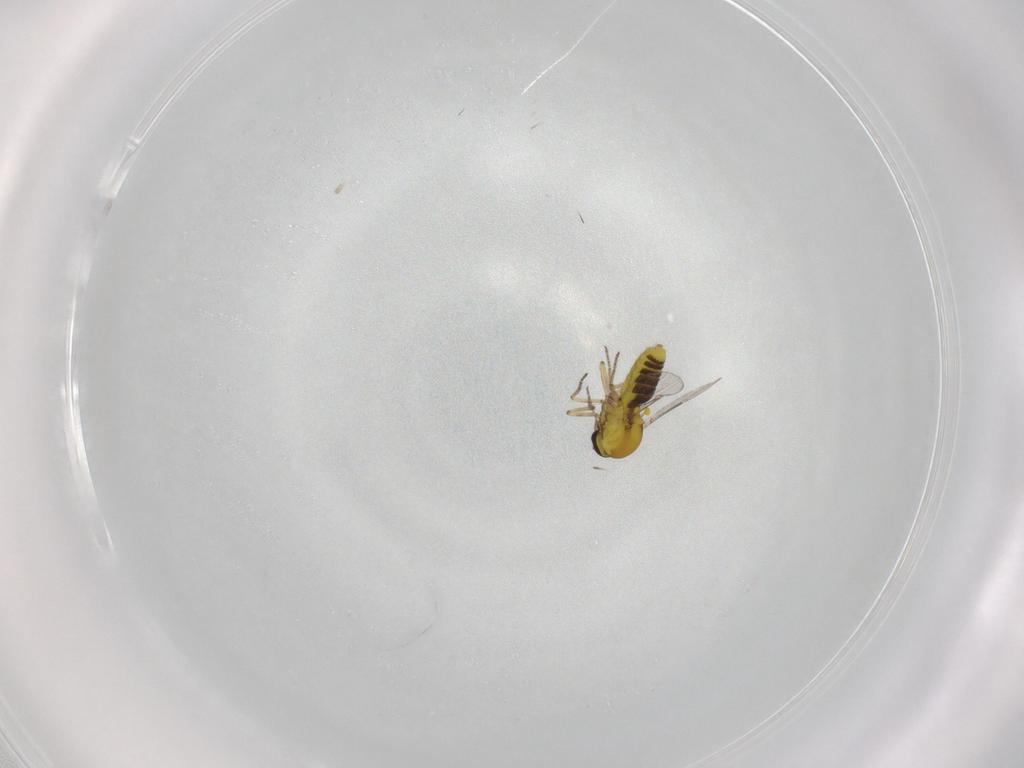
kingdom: Animalia
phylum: Arthropoda
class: Insecta
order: Diptera
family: Ceratopogonidae
